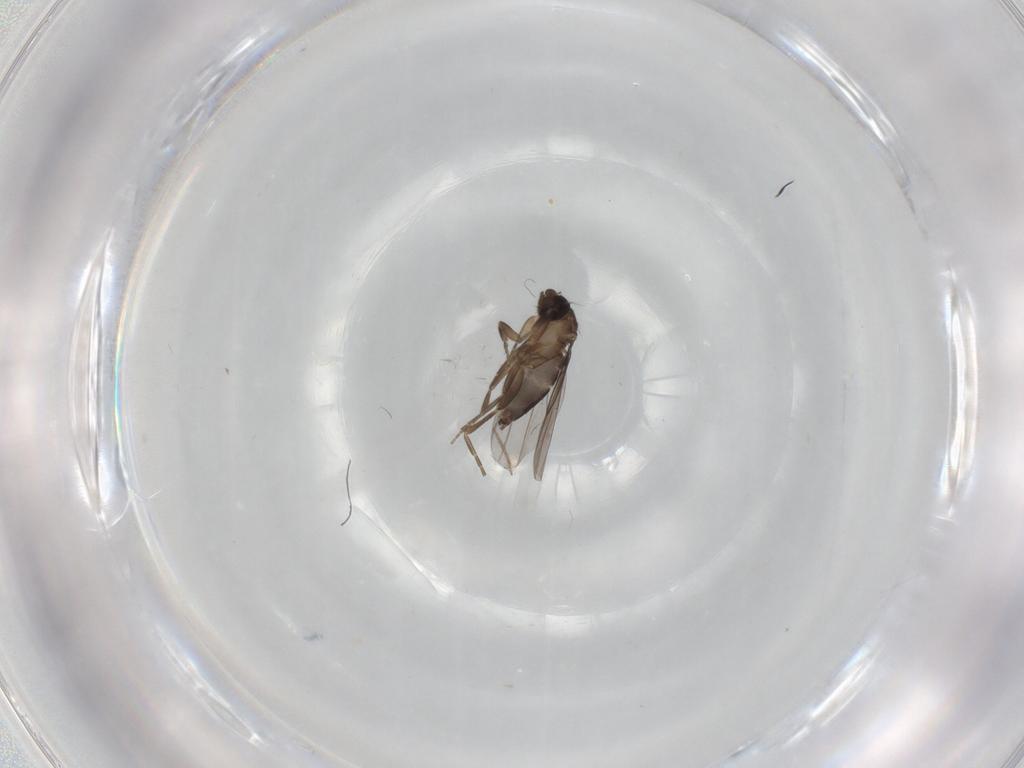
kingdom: Animalia
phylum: Arthropoda
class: Insecta
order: Diptera
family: Chironomidae
